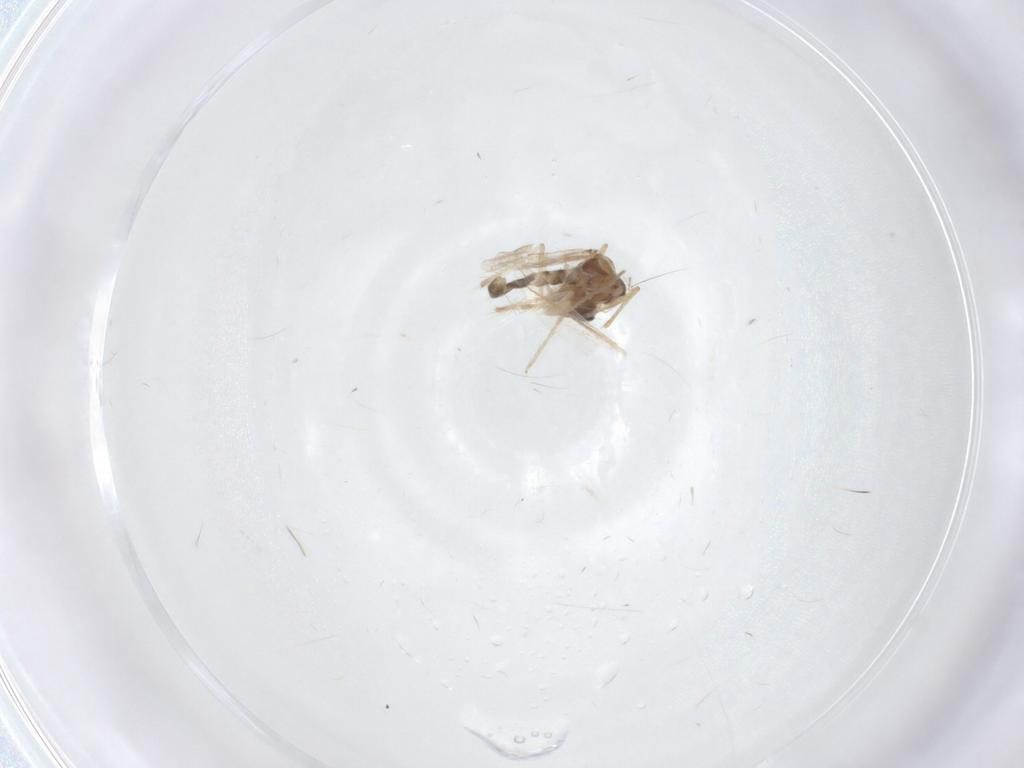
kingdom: Animalia
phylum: Arthropoda
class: Insecta
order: Diptera
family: Chironomidae
